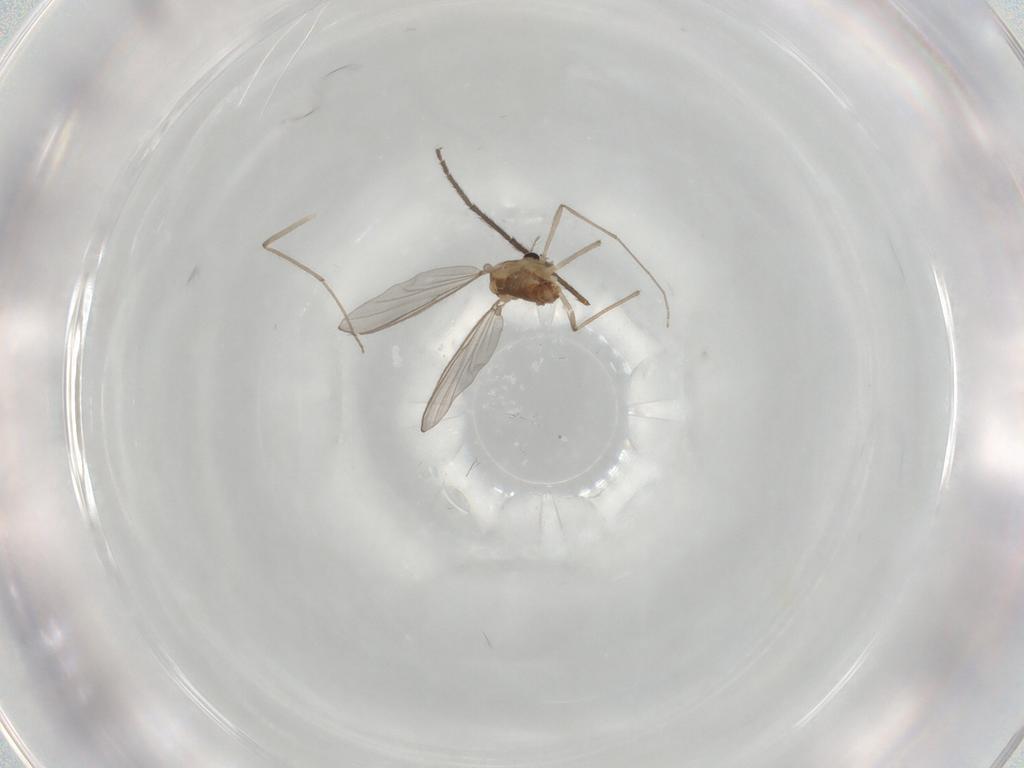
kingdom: Animalia
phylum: Arthropoda
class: Insecta
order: Diptera
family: Chironomidae
